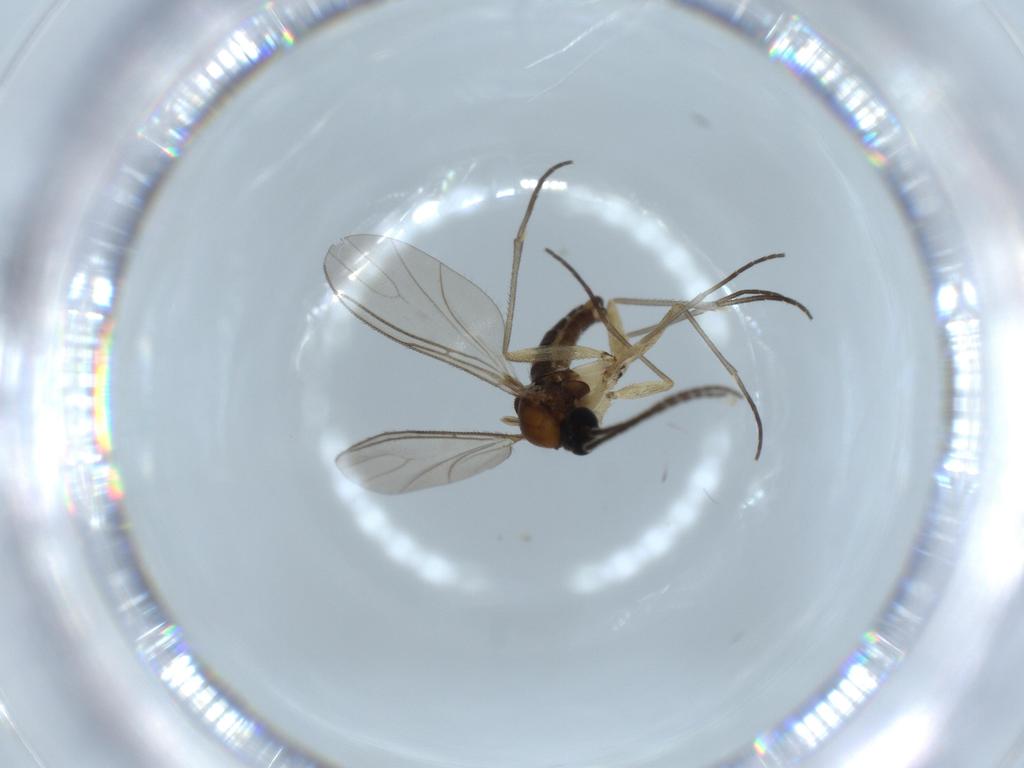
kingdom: Animalia
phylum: Arthropoda
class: Insecta
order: Diptera
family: Sciaridae
